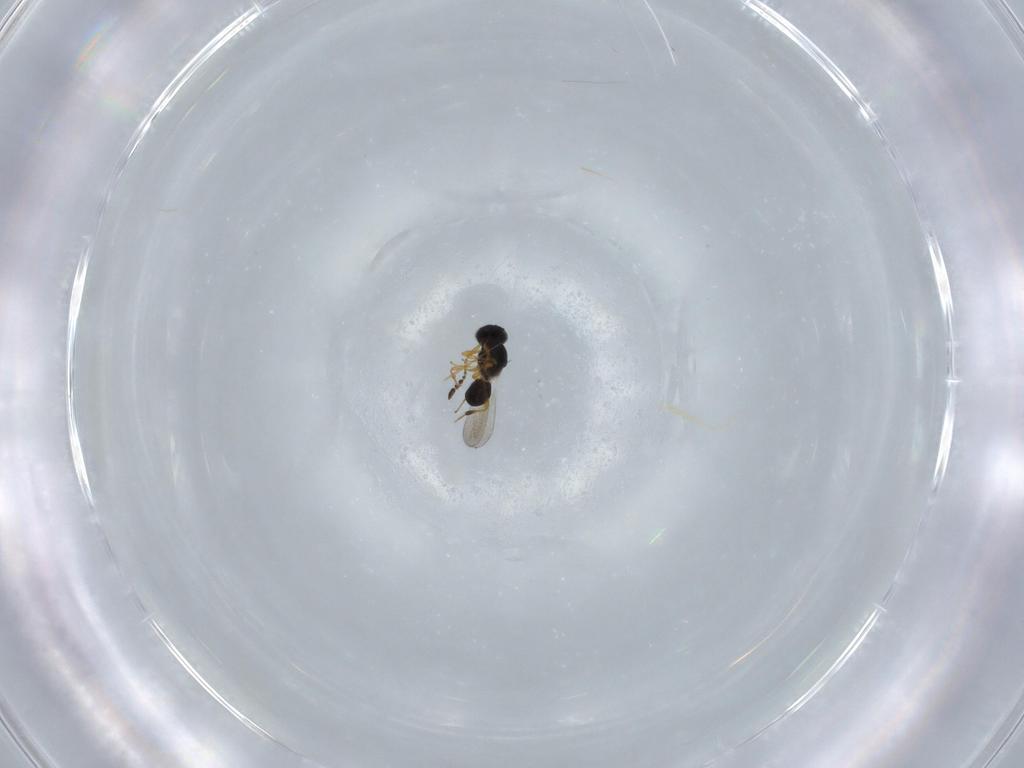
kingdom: Animalia
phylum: Arthropoda
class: Insecta
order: Hymenoptera
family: Platygastridae
